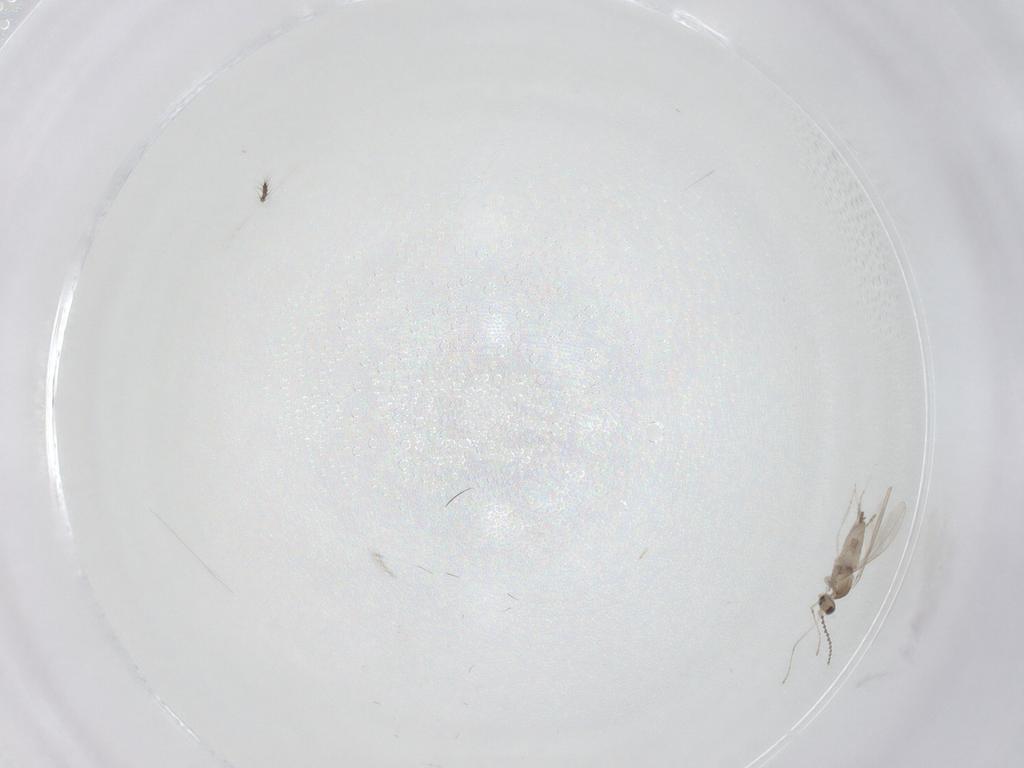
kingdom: Animalia
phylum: Arthropoda
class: Insecta
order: Diptera
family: Cecidomyiidae
